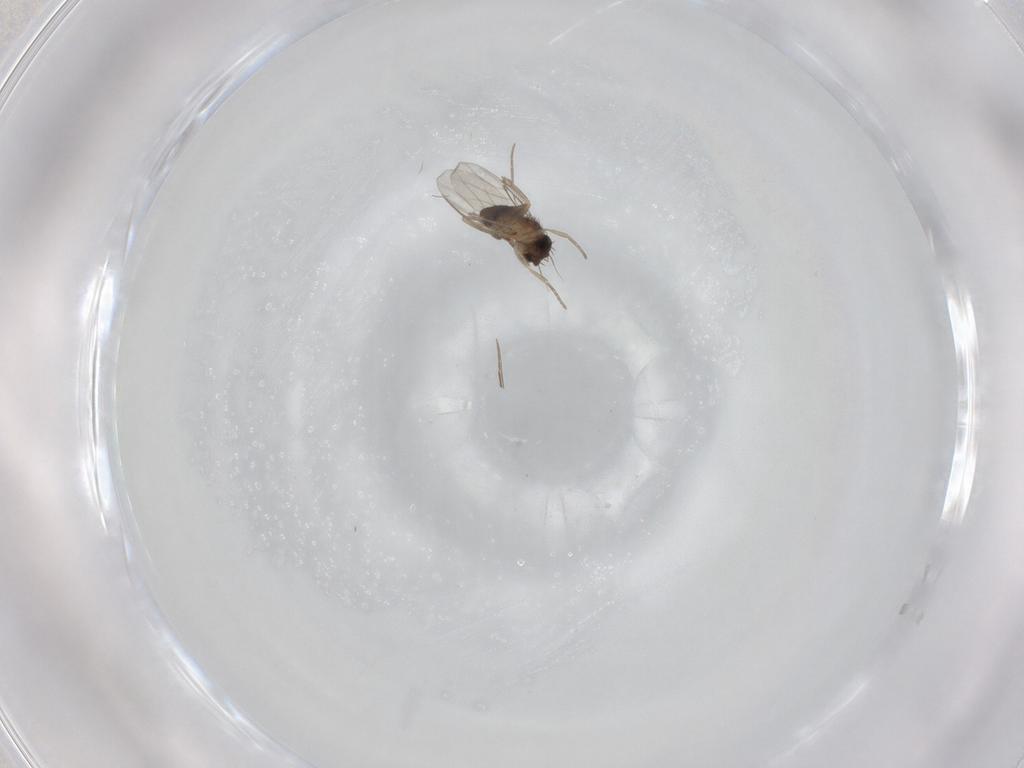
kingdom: Animalia
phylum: Arthropoda
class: Insecta
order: Diptera
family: Phoridae
